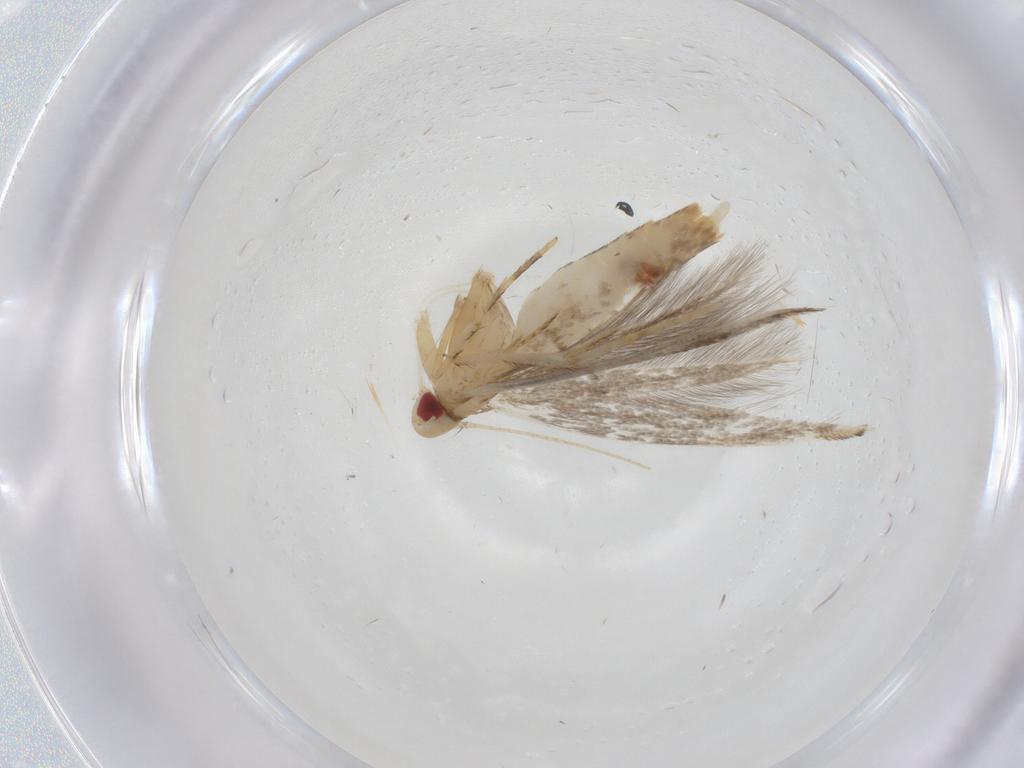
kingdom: Animalia
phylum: Arthropoda
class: Insecta
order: Lepidoptera
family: Cosmopterigidae
